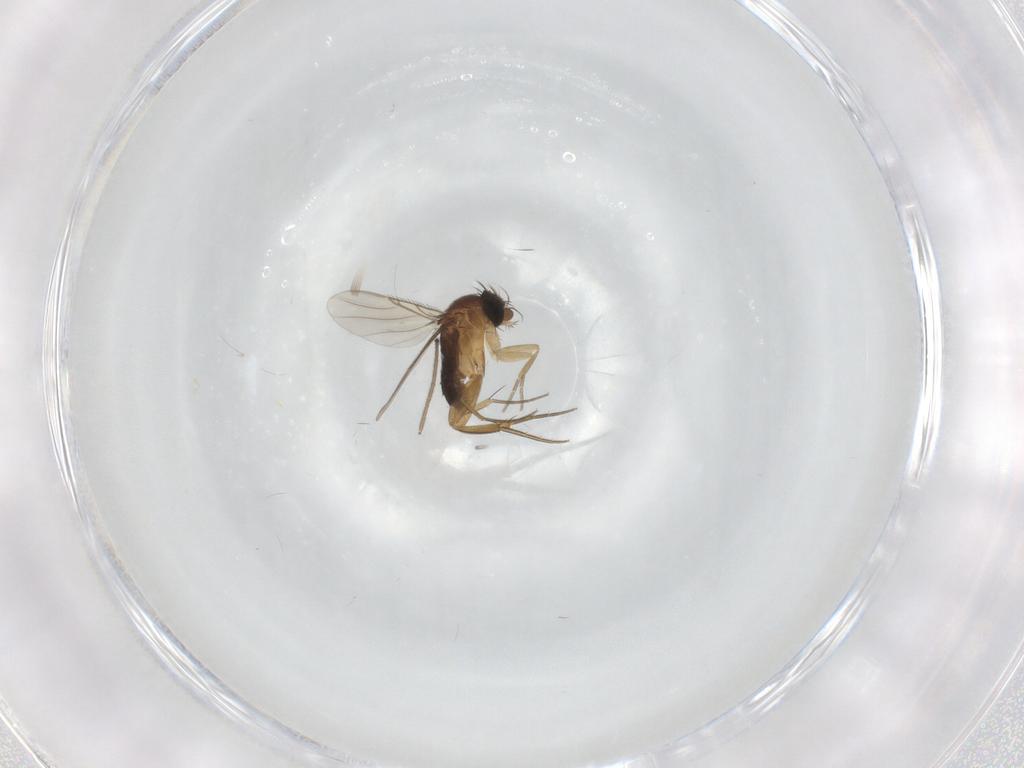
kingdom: Animalia
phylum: Arthropoda
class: Insecta
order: Diptera
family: Phoridae
